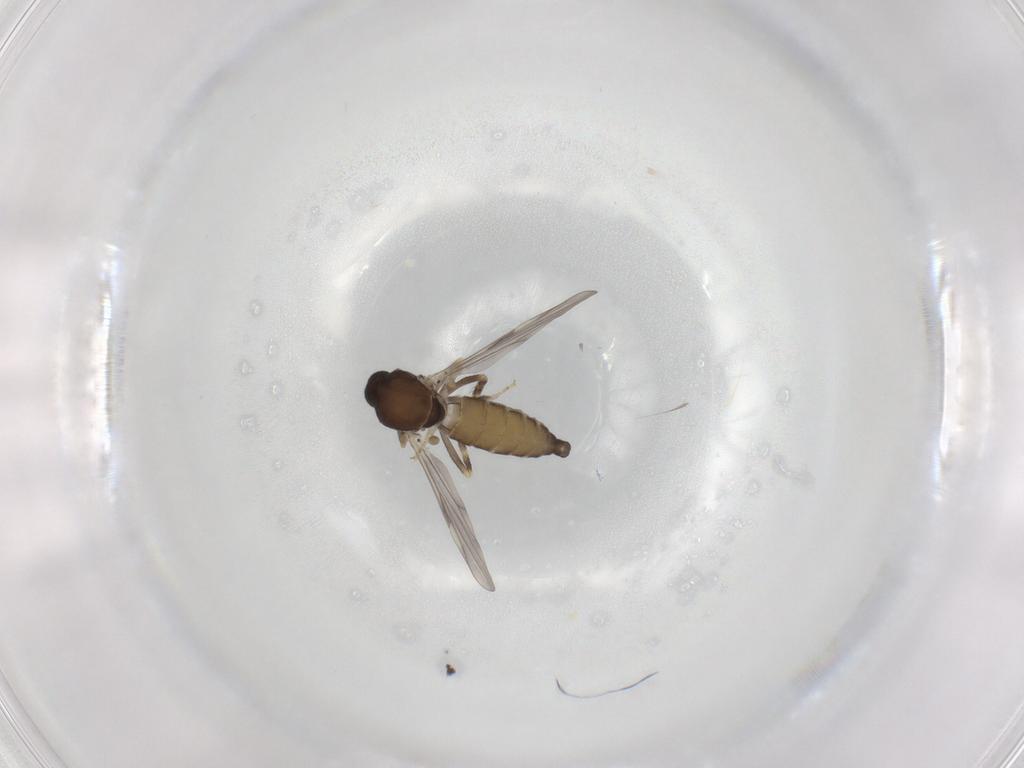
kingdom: Animalia
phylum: Arthropoda
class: Insecta
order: Diptera
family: Ceratopogonidae
